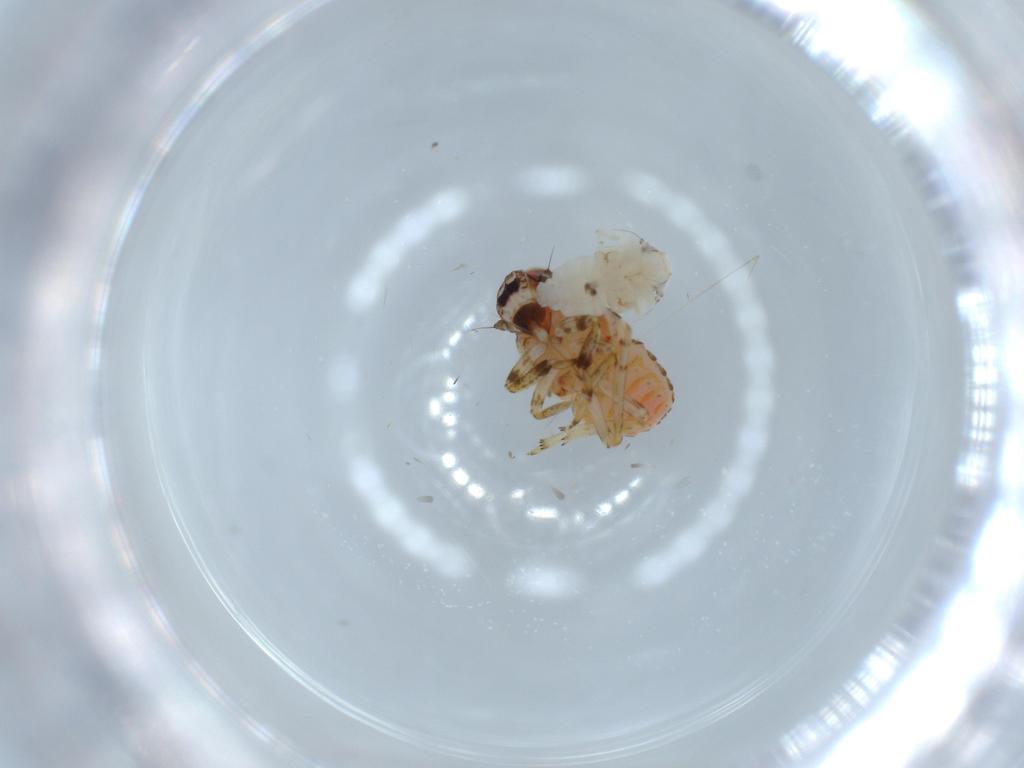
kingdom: Animalia
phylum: Arthropoda
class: Insecta
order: Hemiptera
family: Issidae
